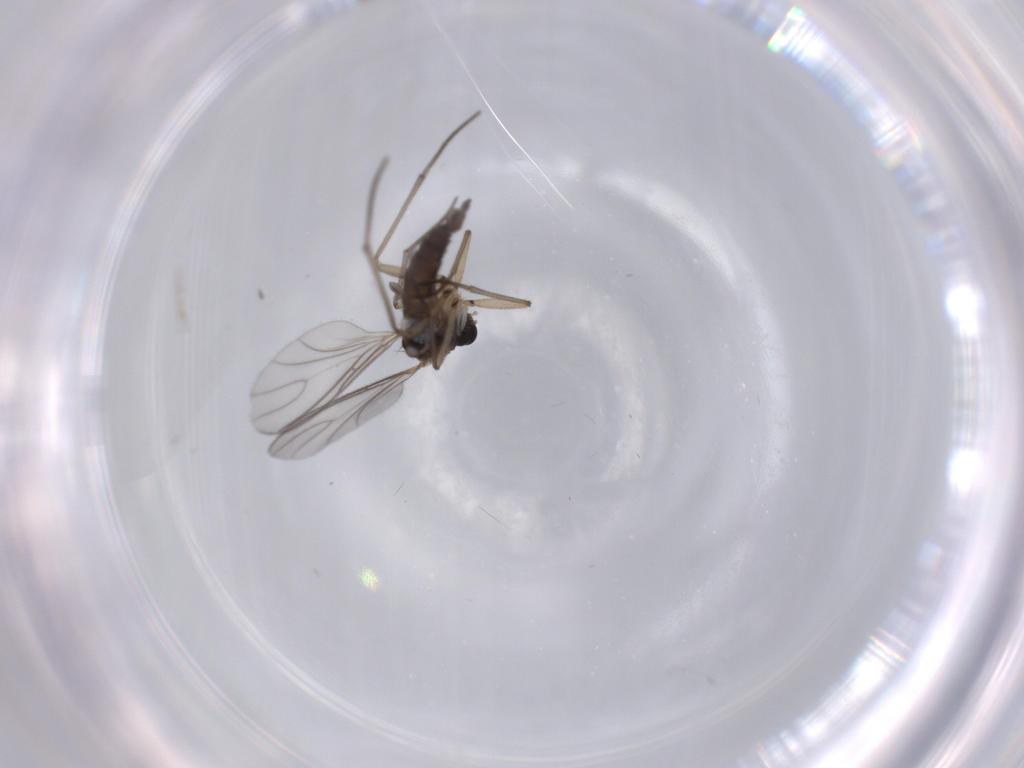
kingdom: Animalia
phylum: Arthropoda
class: Insecta
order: Diptera
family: Sciaridae
